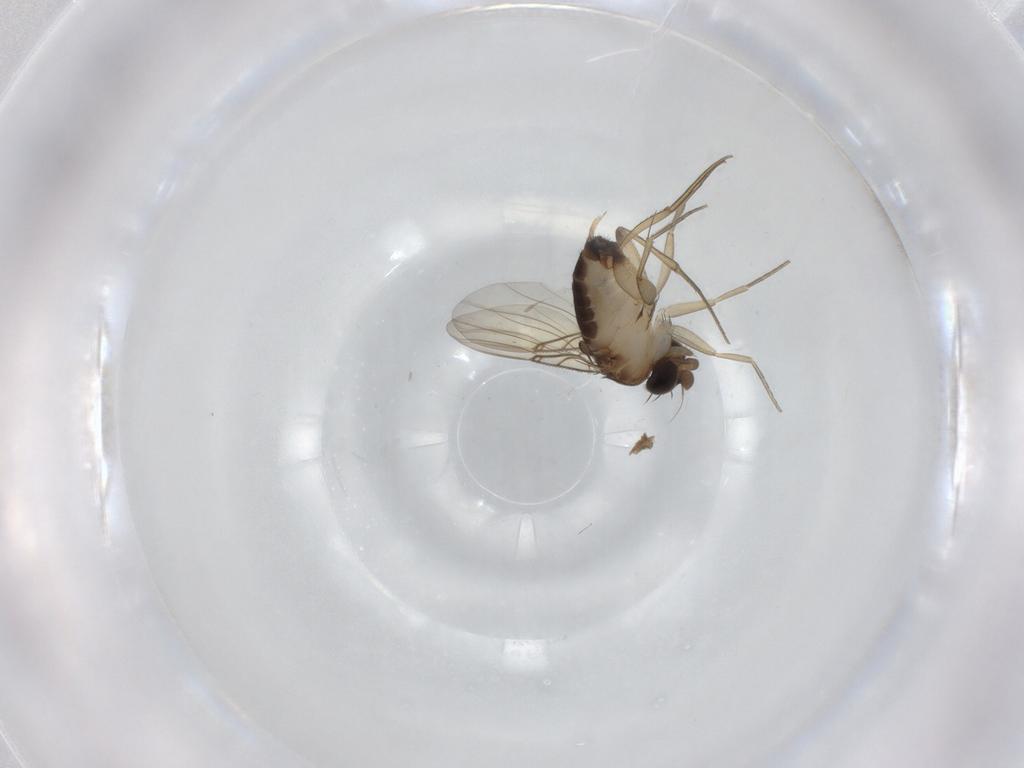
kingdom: Animalia
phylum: Arthropoda
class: Insecta
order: Diptera
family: Phoridae
